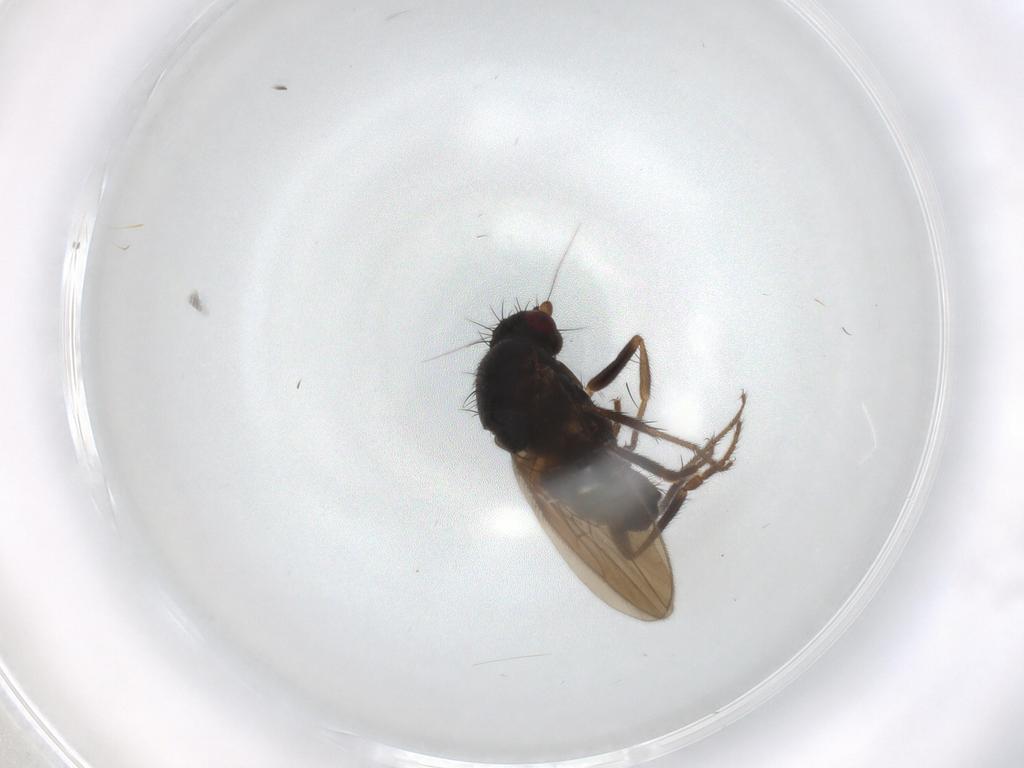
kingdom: Animalia
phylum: Arthropoda
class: Insecta
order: Diptera
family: Sphaeroceridae
